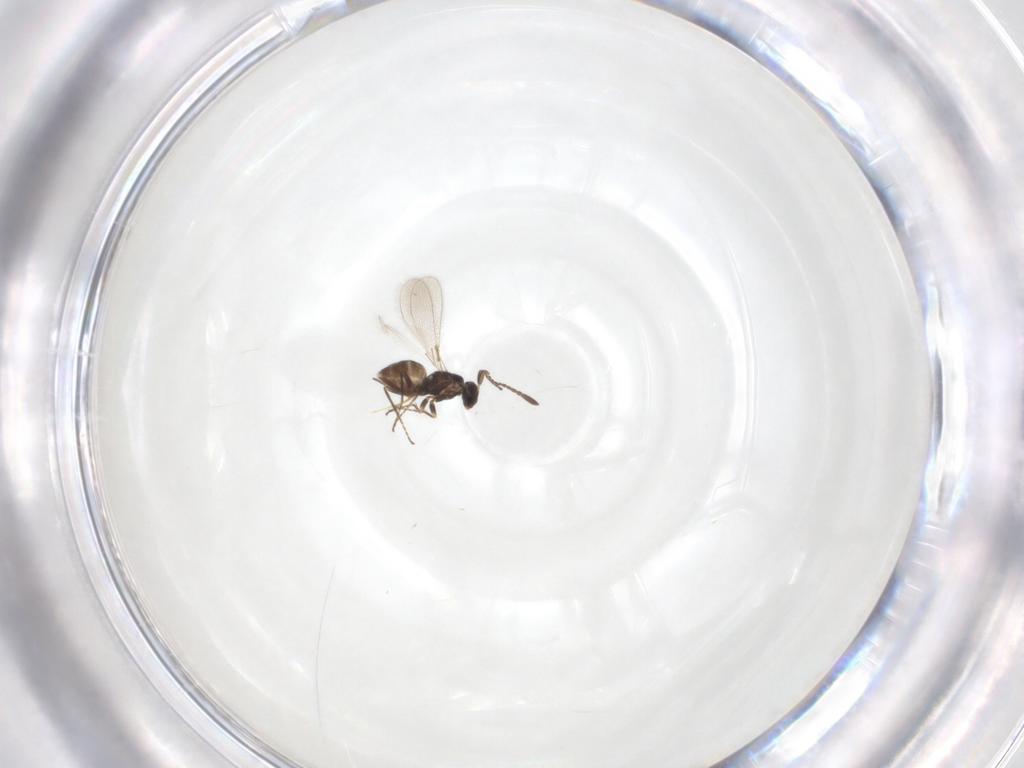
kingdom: Animalia
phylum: Arthropoda
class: Insecta
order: Hymenoptera
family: Mymaridae
